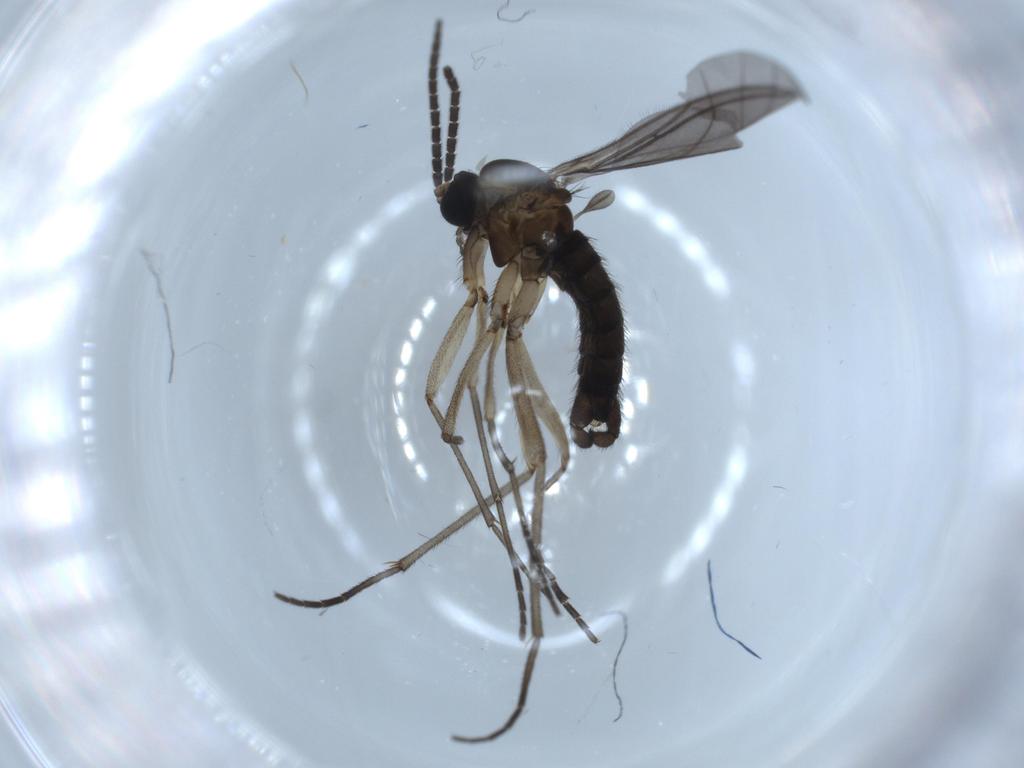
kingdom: Animalia
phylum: Arthropoda
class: Insecta
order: Diptera
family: Sciaridae
